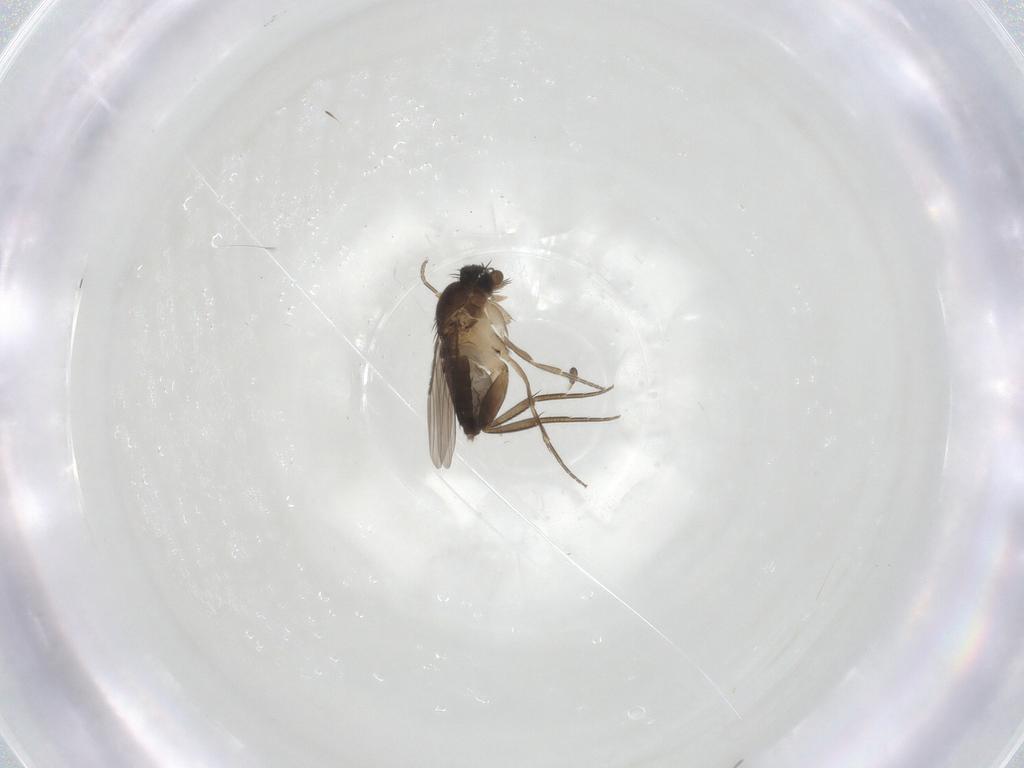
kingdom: Animalia
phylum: Arthropoda
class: Insecta
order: Diptera
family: Phoridae
